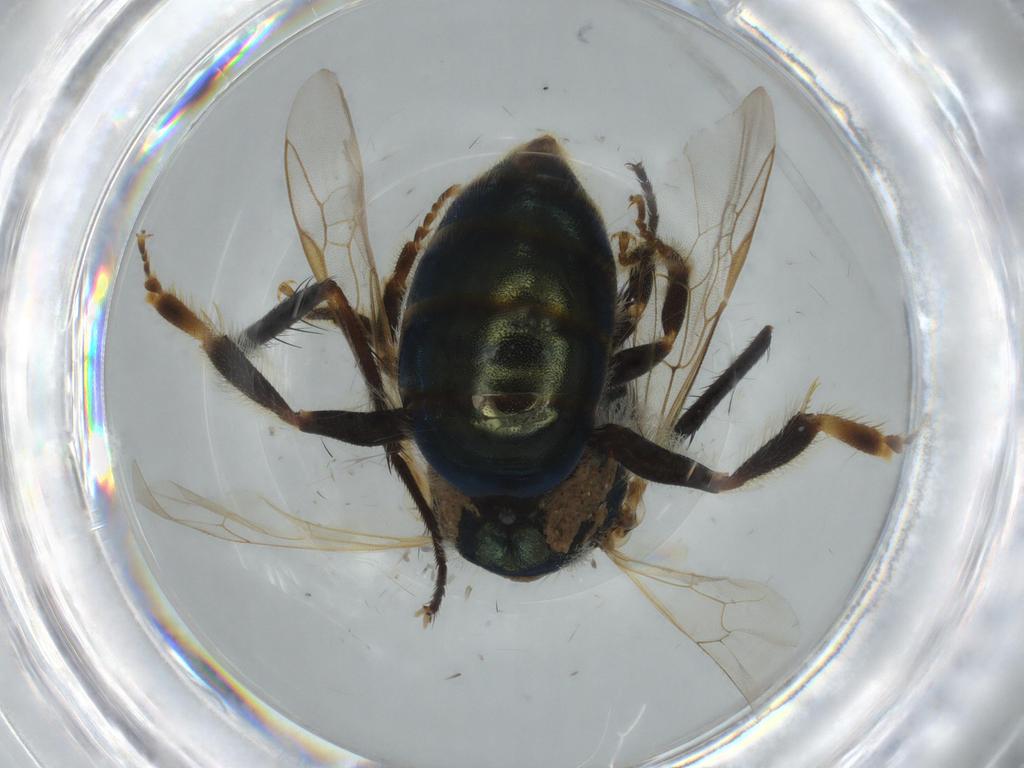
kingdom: Animalia
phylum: Arthropoda
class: Insecta
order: Hymenoptera
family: Halictidae
